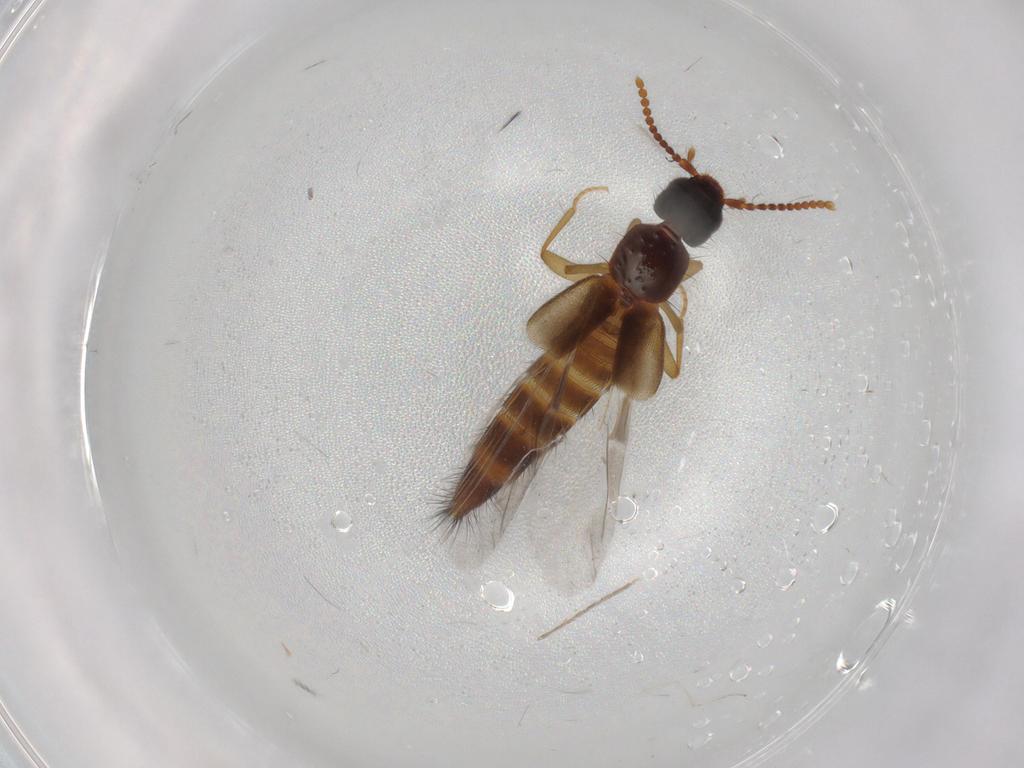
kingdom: Animalia
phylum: Arthropoda
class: Insecta
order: Coleoptera
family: Staphylinidae
